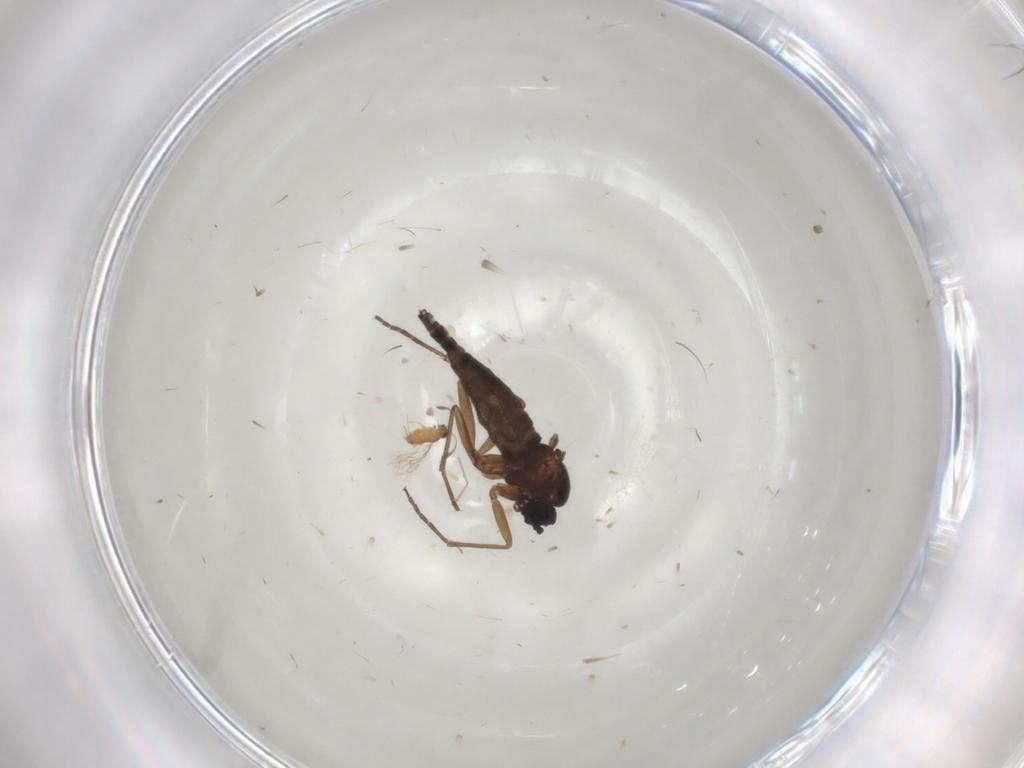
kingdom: Animalia
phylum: Arthropoda
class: Insecta
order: Diptera
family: Sciaridae
